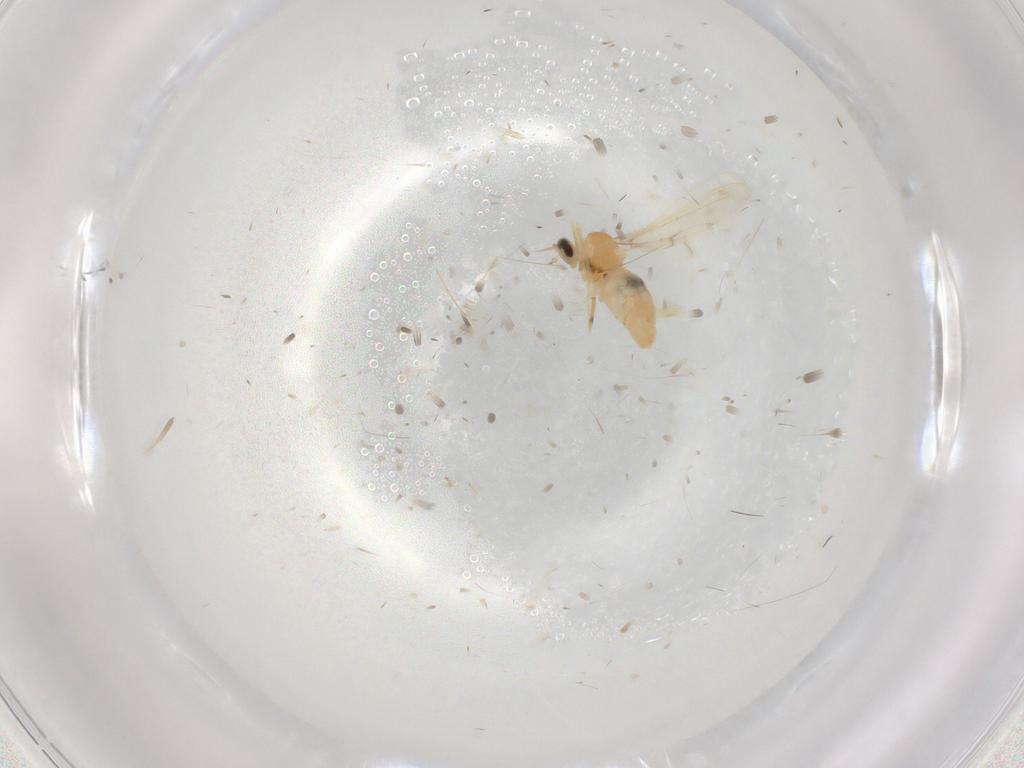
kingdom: Animalia
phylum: Arthropoda
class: Insecta
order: Diptera
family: Cecidomyiidae
